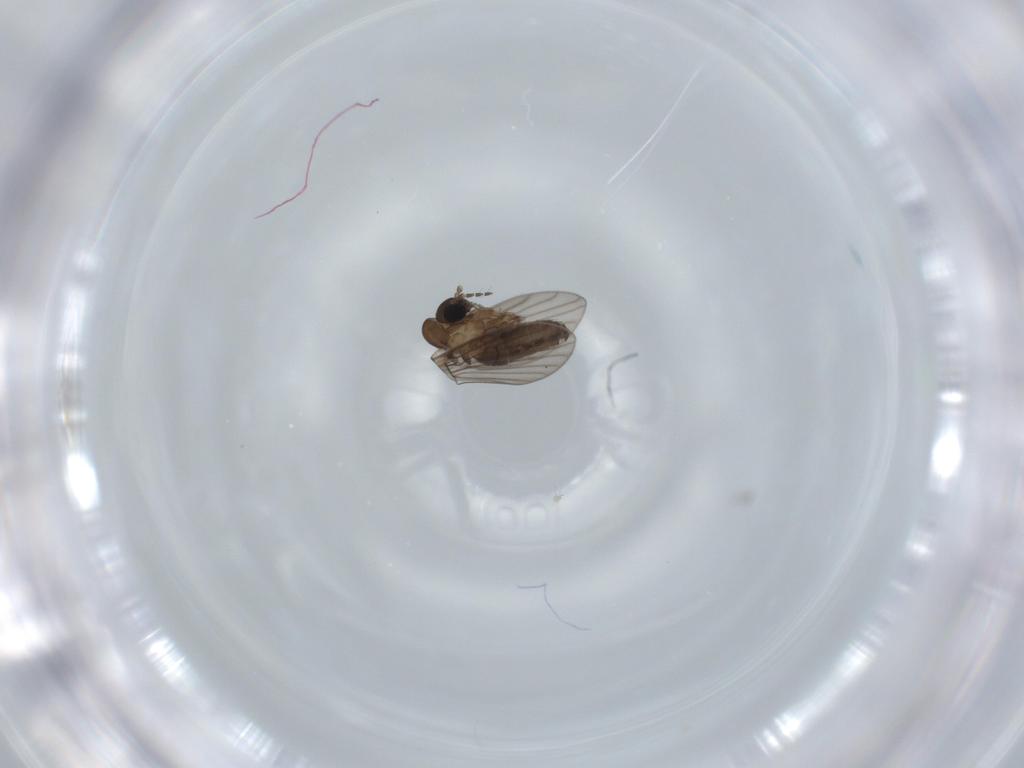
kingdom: Animalia
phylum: Arthropoda
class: Insecta
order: Diptera
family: Psychodidae
